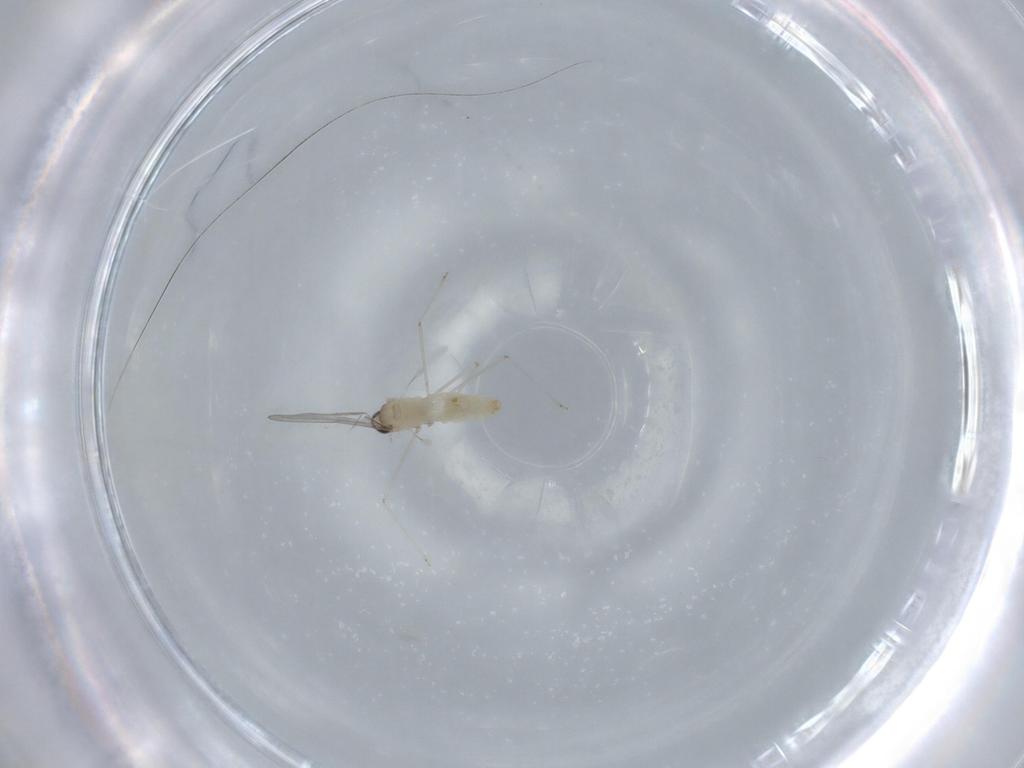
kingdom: Animalia
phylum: Arthropoda
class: Insecta
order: Diptera
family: Cecidomyiidae
